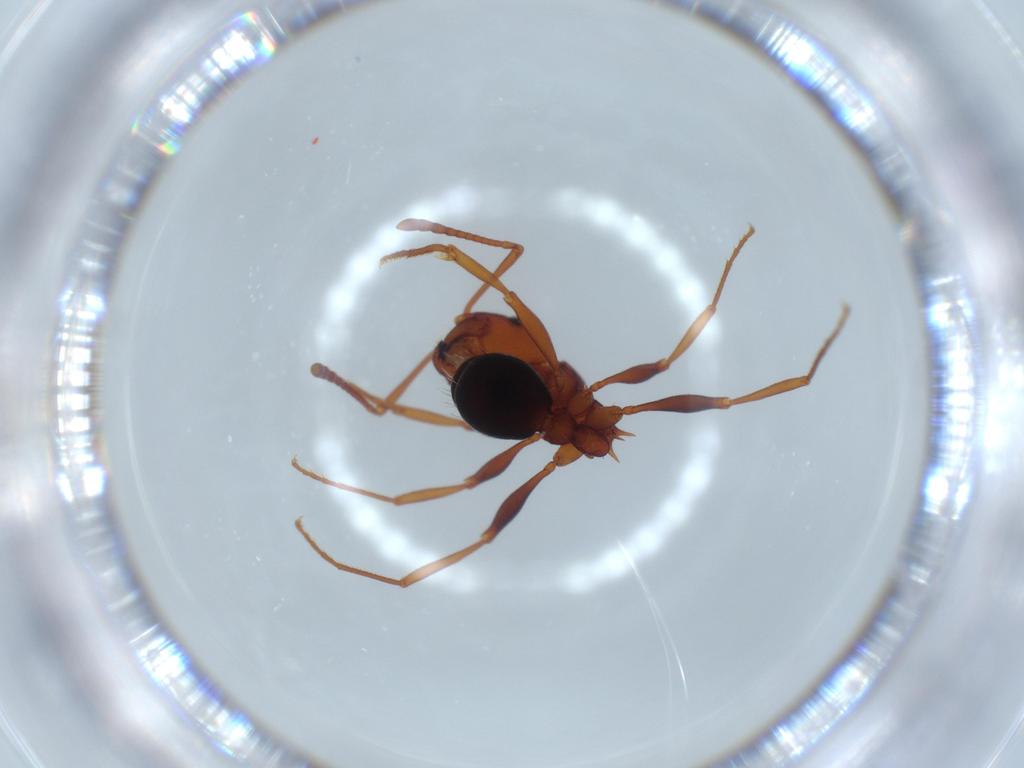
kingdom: Animalia
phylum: Arthropoda
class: Insecta
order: Hymenoptera
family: Formicidae
